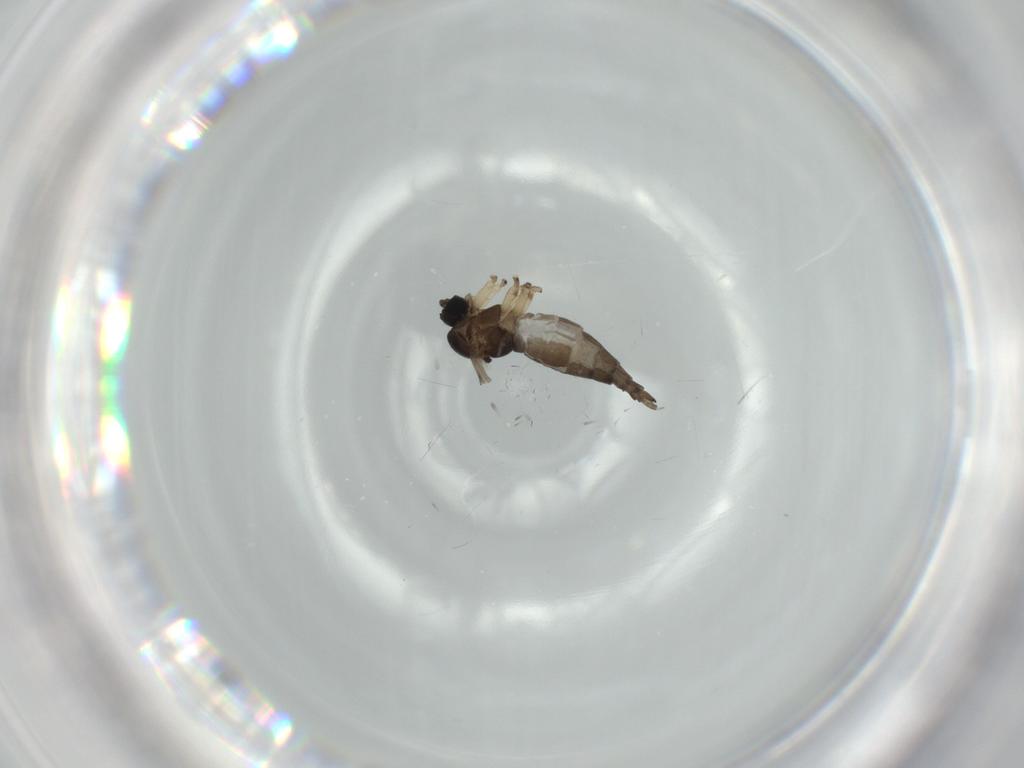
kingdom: Animalia
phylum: Arthropoda
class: Insecta
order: Diptera
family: Sciaridae
